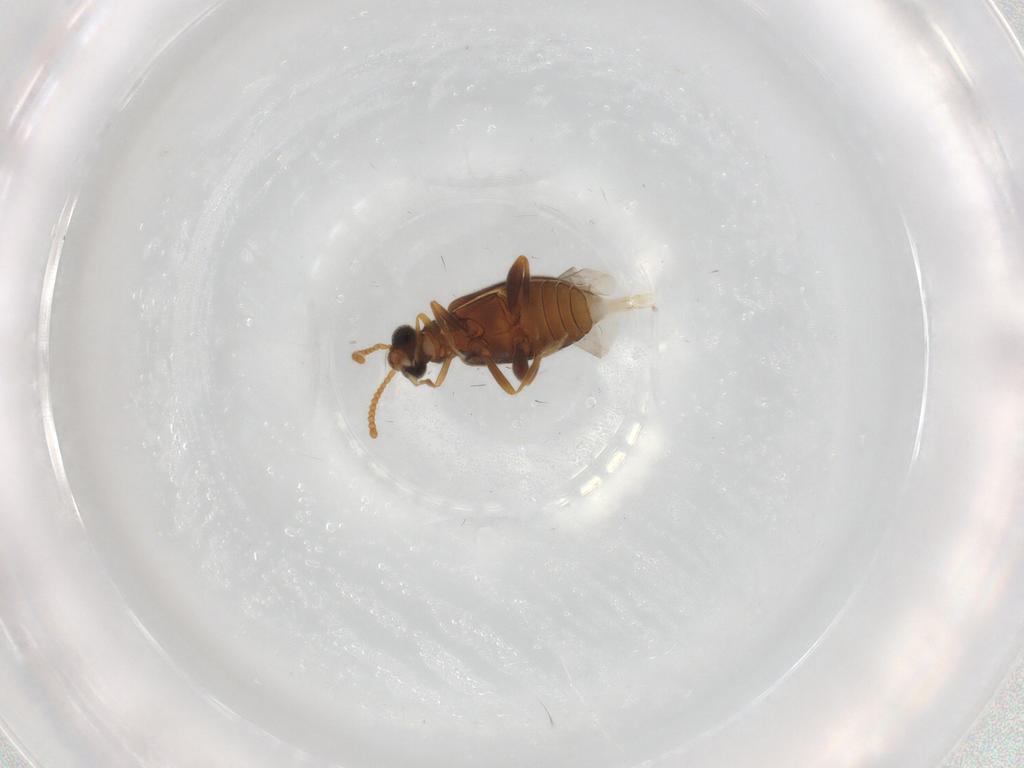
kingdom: Animalia
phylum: Arthropoda
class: Insecta
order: Coleoptera
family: Aderidae
